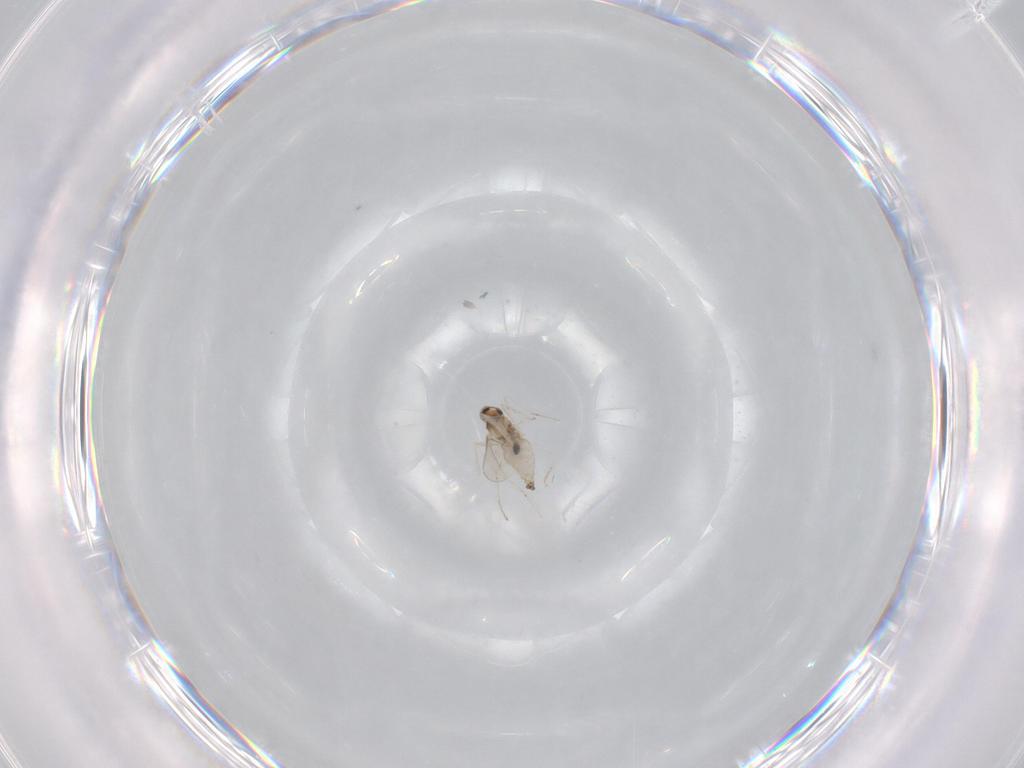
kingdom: Animalia
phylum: Arthropoda
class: Insecta
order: Diptera
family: Cecidomyiidae
